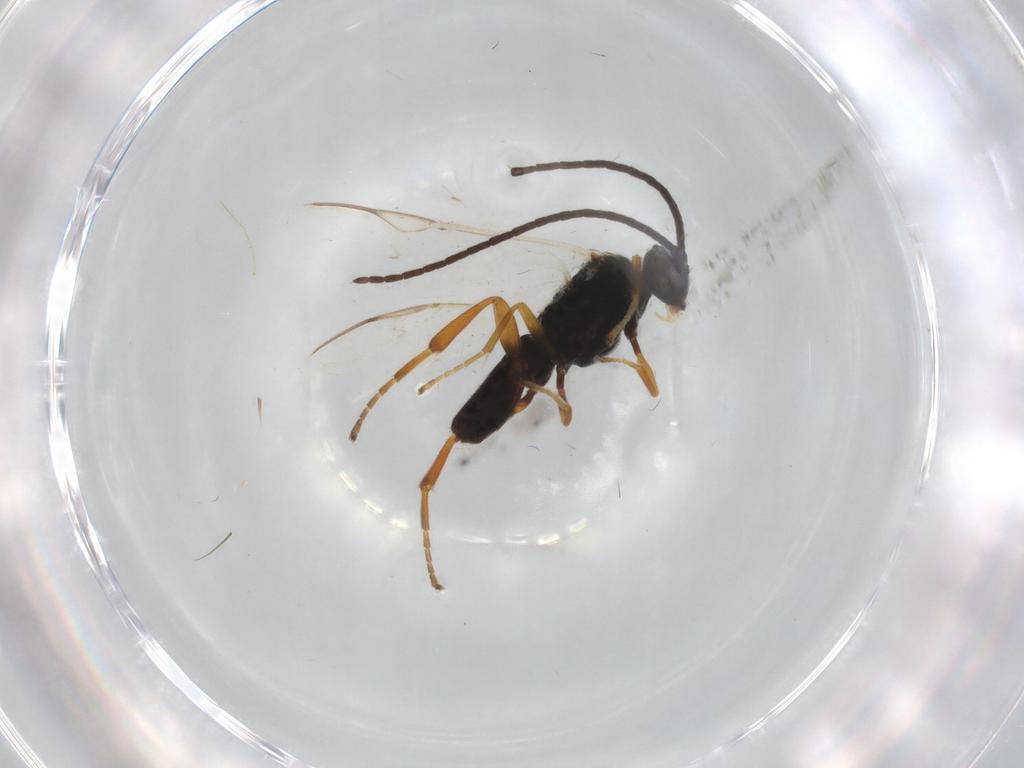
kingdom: Animalia
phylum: Arthropoda
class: Insecta
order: Hymenoptera
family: Braconidae
